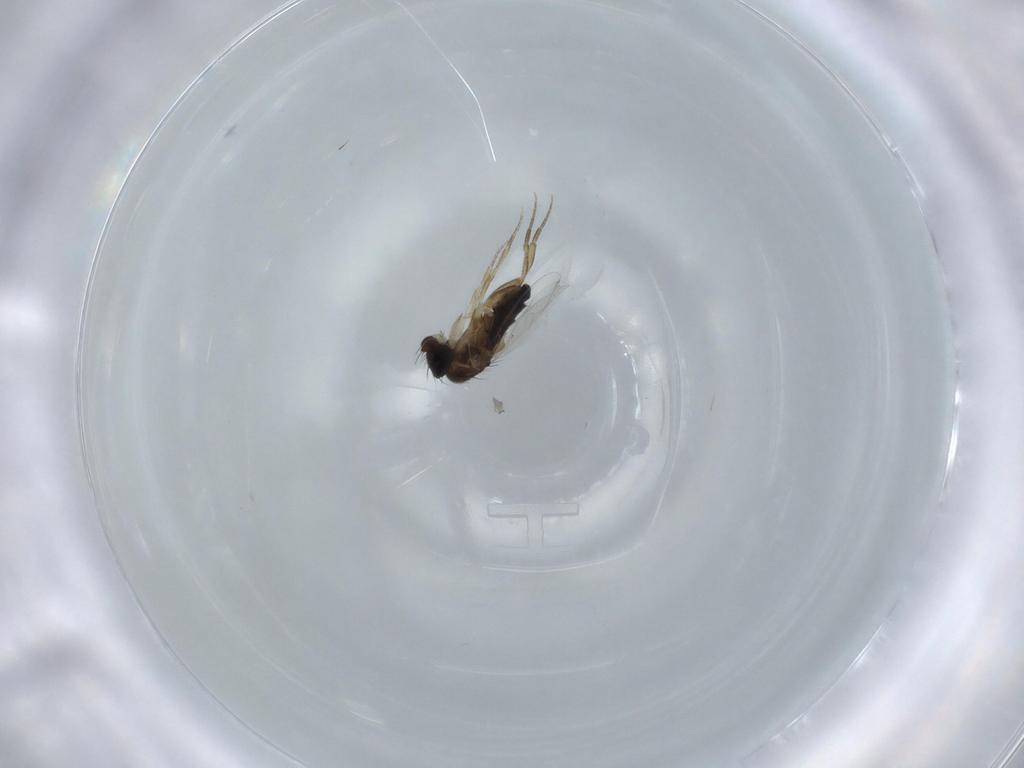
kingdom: Animalia
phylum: Arthropoda
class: Insecta
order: Diptera
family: Phoridae
